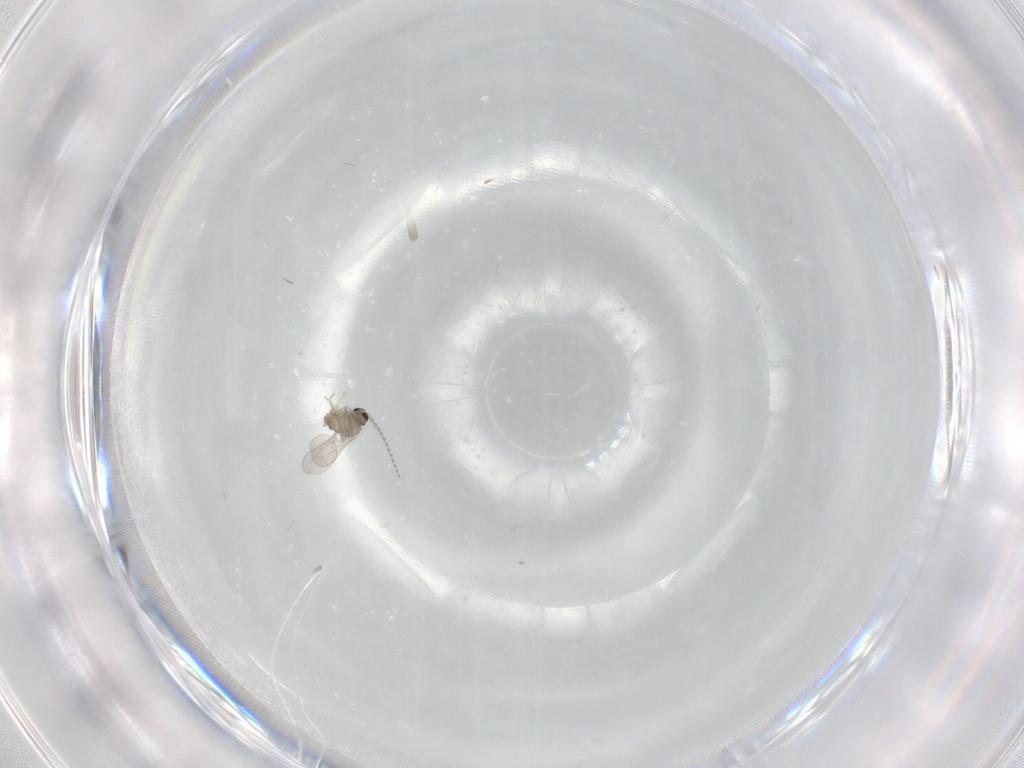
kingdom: Animalia
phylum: Arthropoda
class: Insecta
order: Diptera
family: Cecidomyiidae
